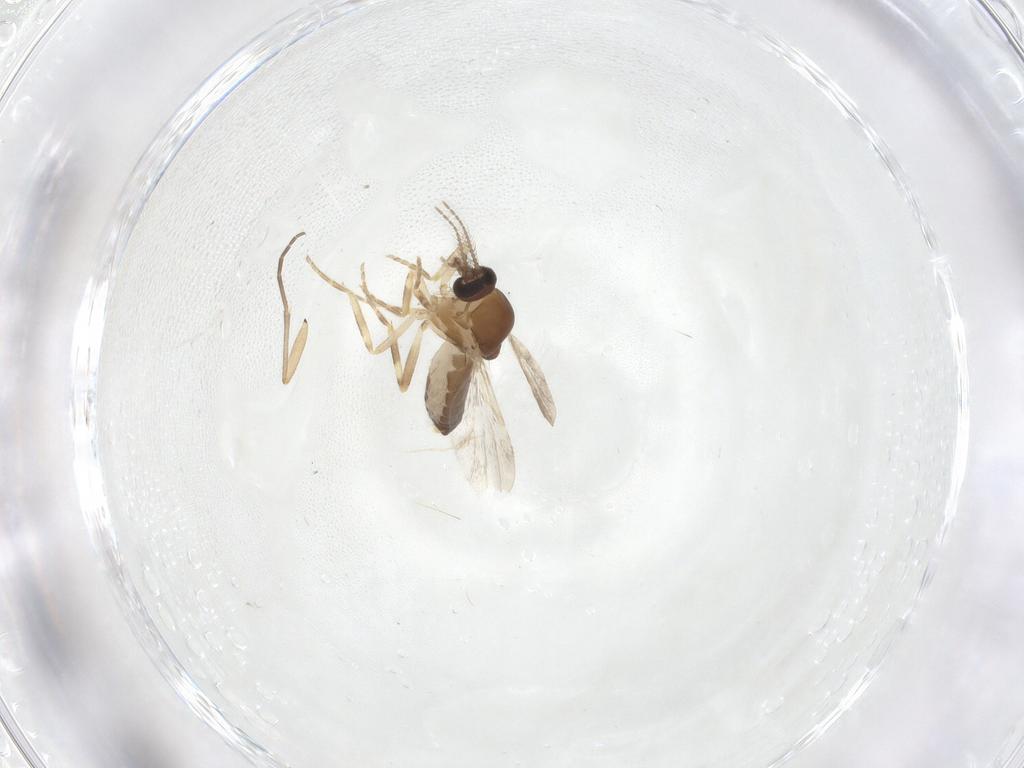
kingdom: Animalia
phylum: Arthropoda
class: Insecta
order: Diptera
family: Ceratopogonidae
